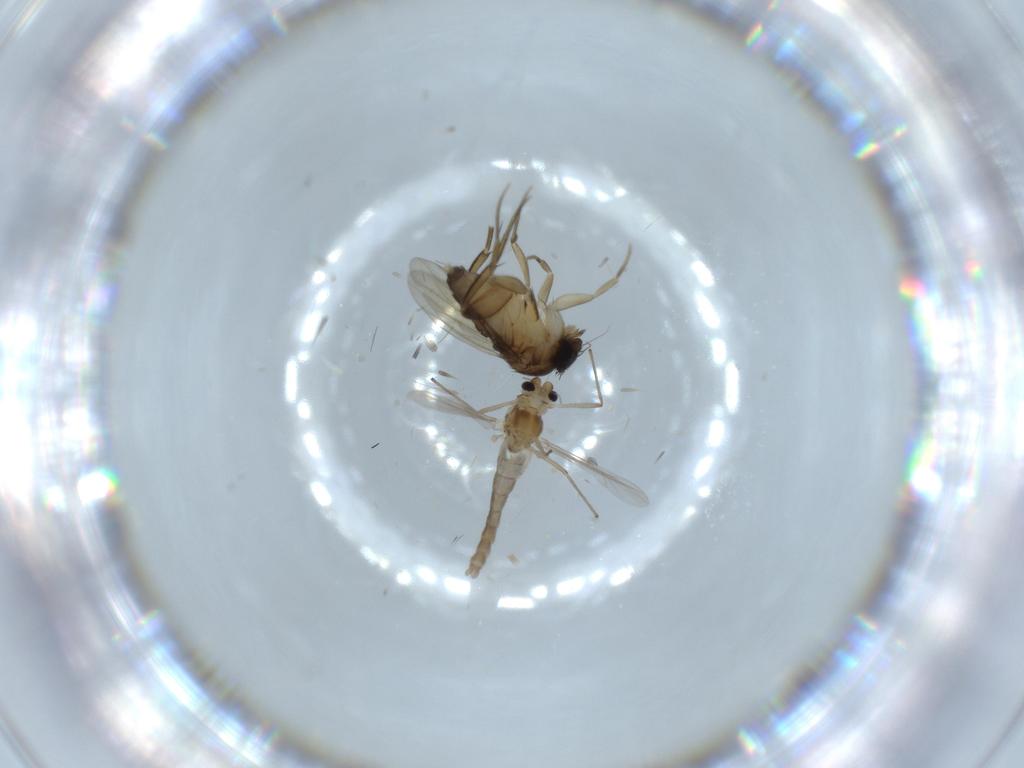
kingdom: Animalia
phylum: Arthropoda
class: Insecta
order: Diptera
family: Phoridae
